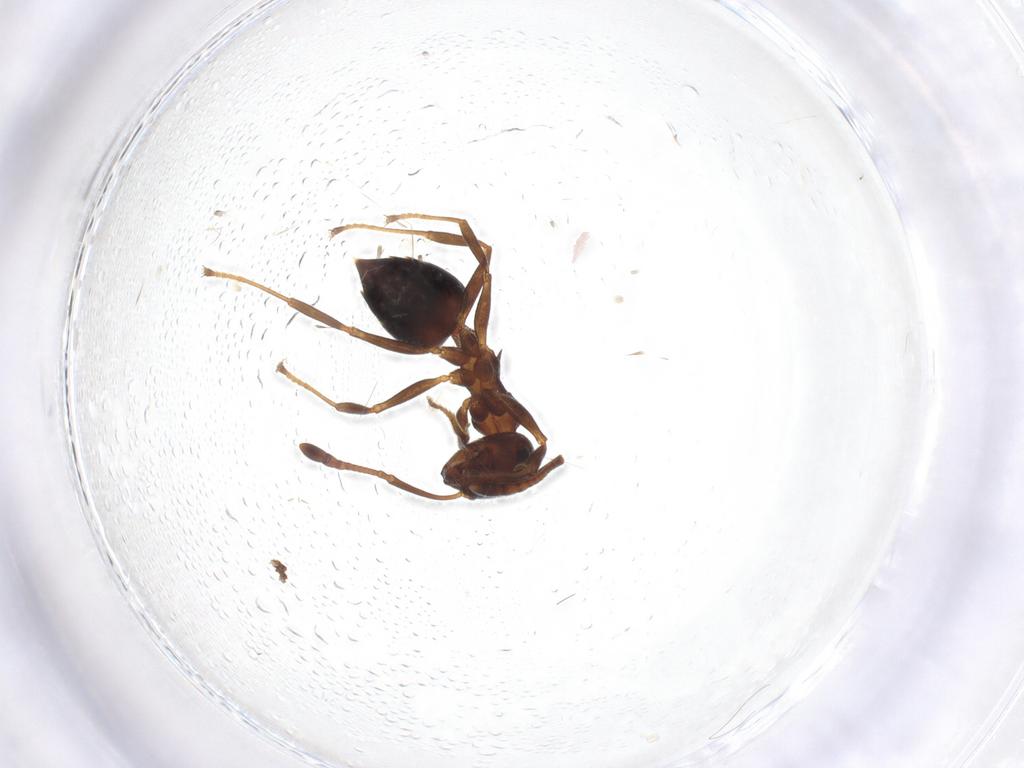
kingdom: Animalia
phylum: Arthropoda
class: Insecta
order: Hymenoptera
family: Formicidae
